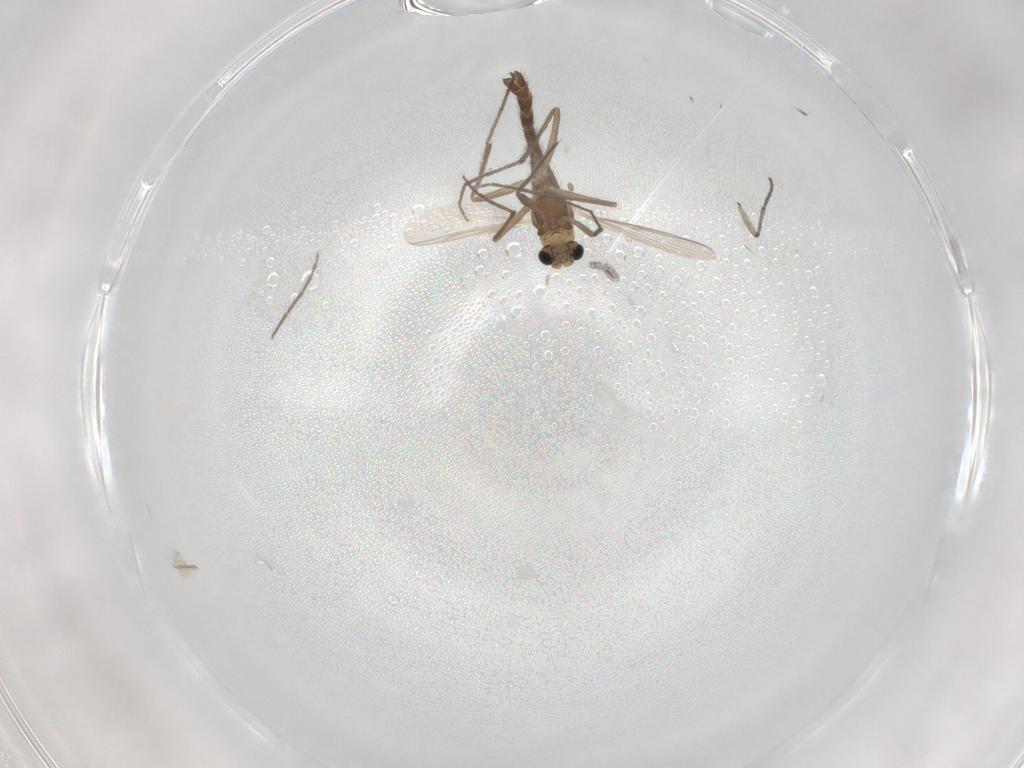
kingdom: Animalia
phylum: Arthropoda
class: Insecta
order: Diptera
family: Chironomidae
